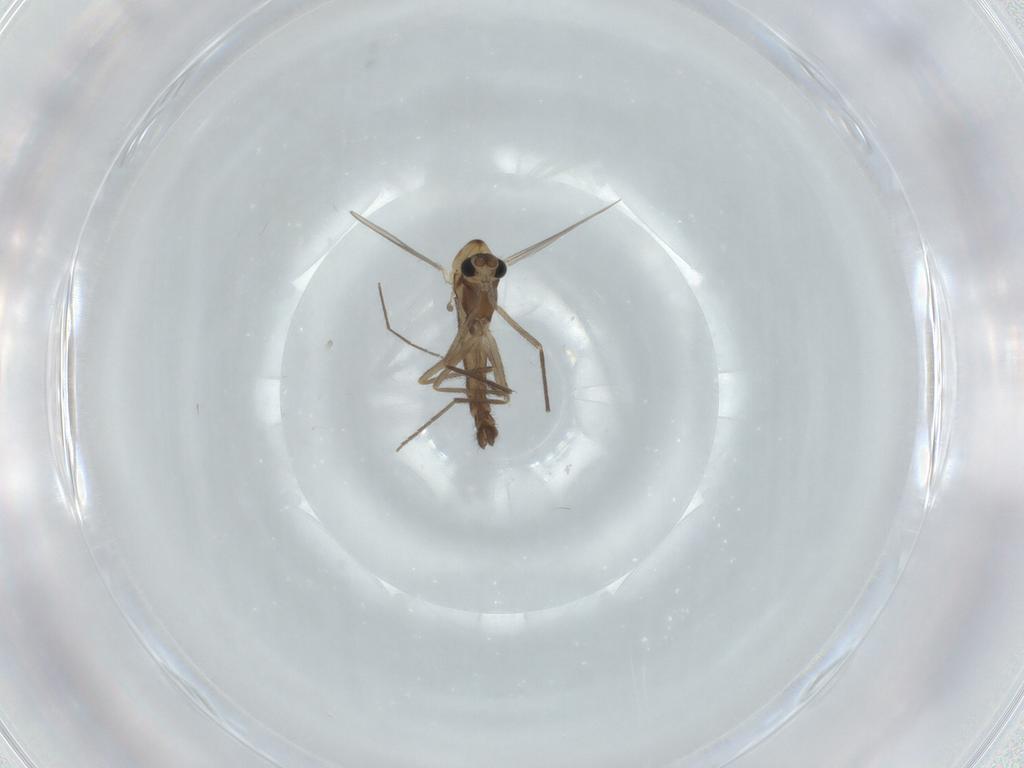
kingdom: Animalia
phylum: Arthropoda
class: Insecta
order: Diptera
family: Chironomidae
